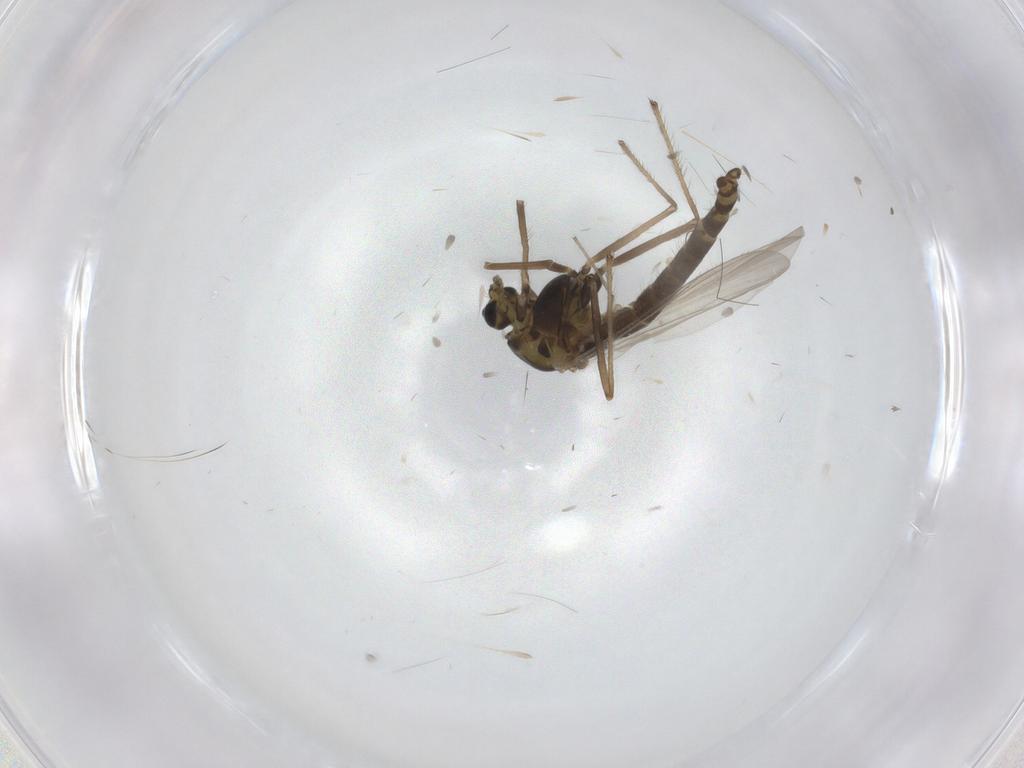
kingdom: Animalia
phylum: Arthropoda
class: Insecta
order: Diptera
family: Chironomidae
